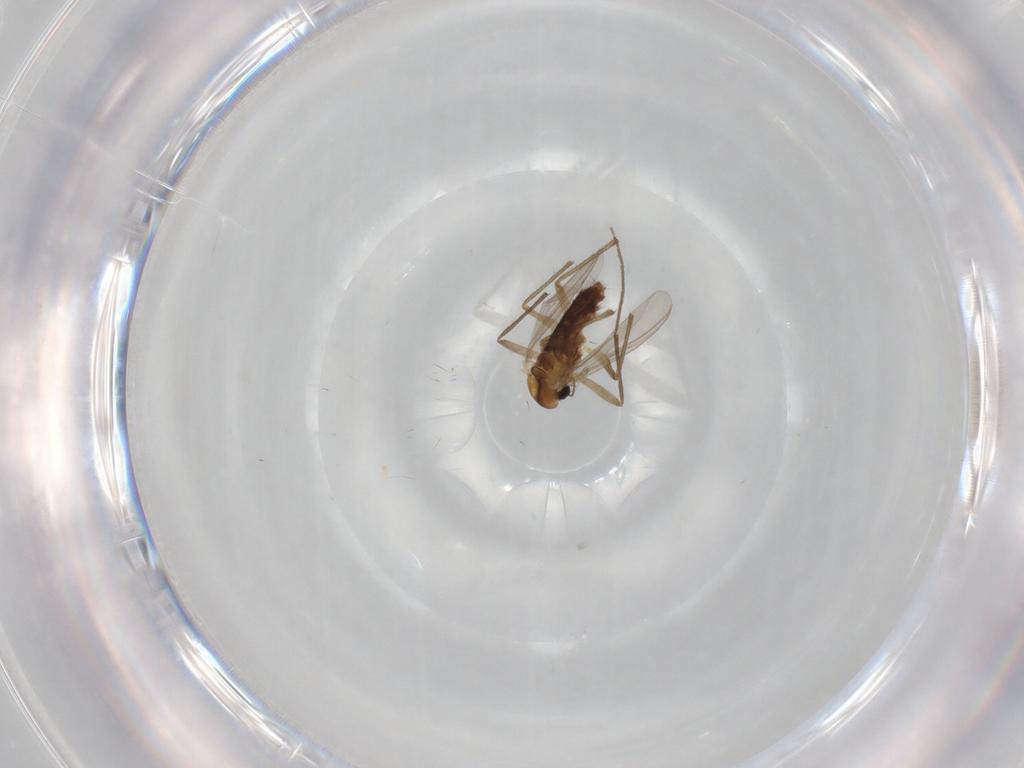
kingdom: Animalia
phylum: Arthropoda
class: Insecta
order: Diptera
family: Chironomidae
